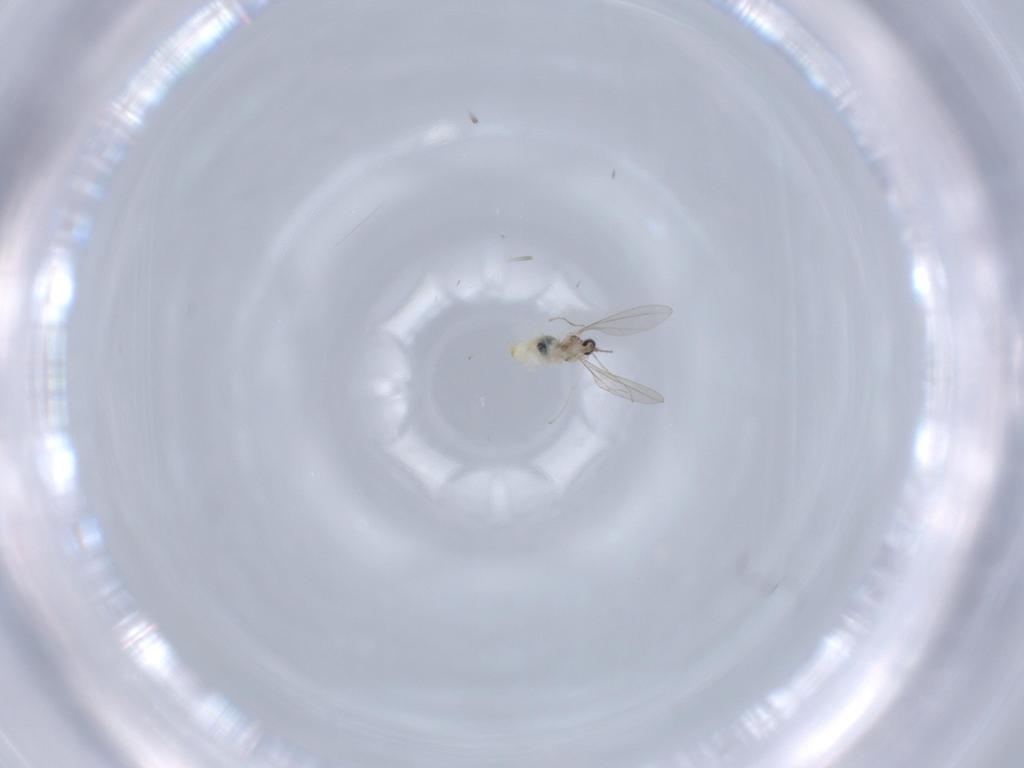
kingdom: Animalia
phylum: Arthropoda
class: Insecta
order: Diptera
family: Cecidomyiidae
